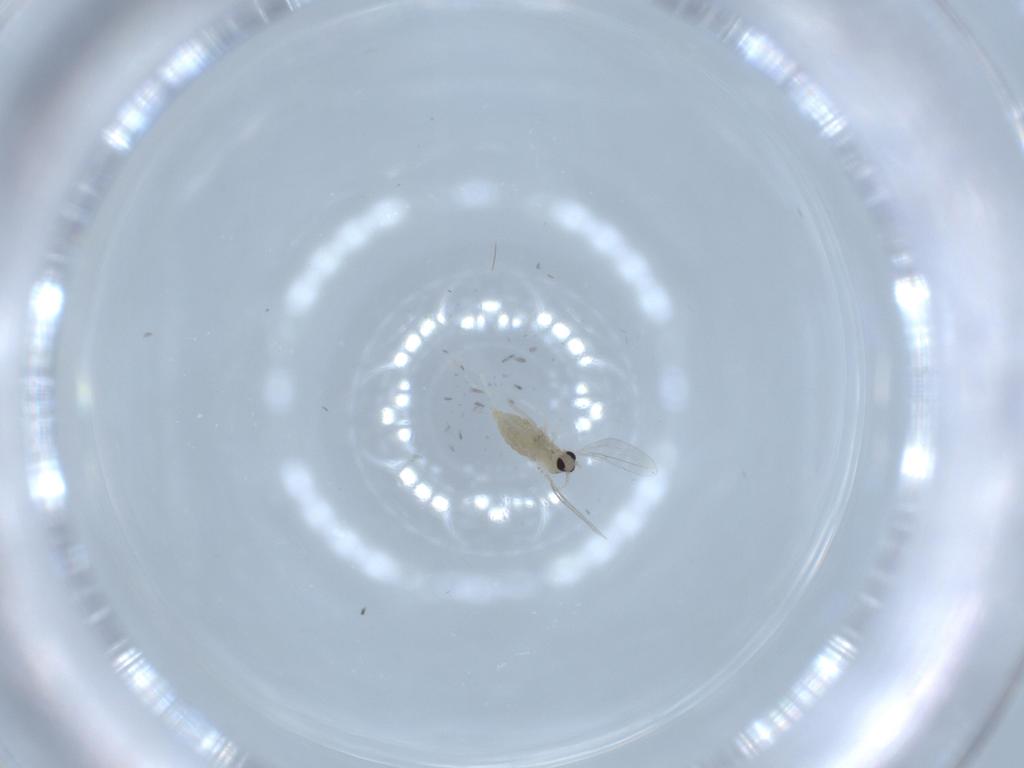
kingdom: Animalia
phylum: Arthropoda
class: Insecta
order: Diptera
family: Cecidomyiidae
